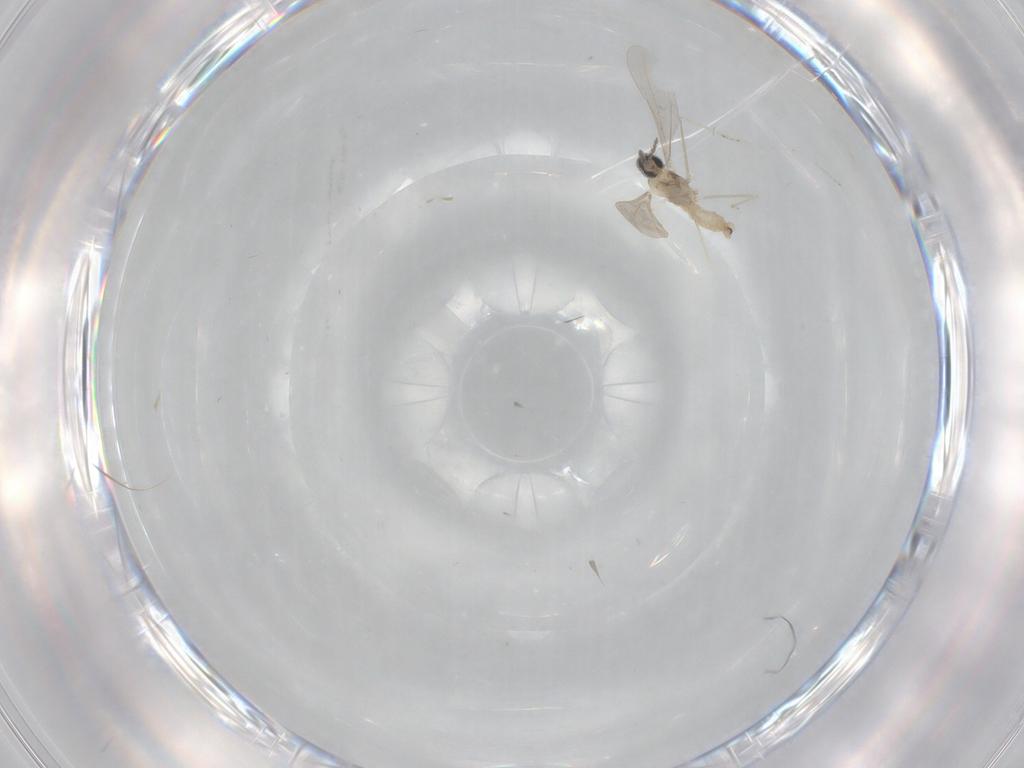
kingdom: Animalia
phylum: Arthropoda
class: Insecta
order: Diptera
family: Cecidomyiidae
